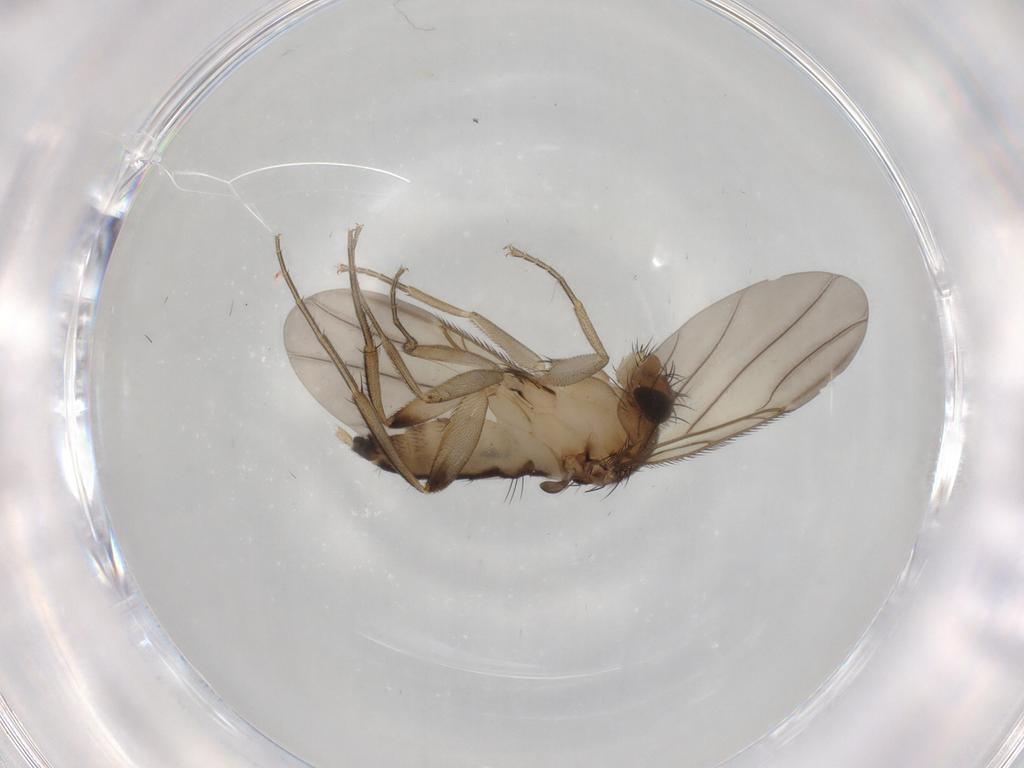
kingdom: Animalia
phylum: Arthropoda
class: Insecta
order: Diptera
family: Phoridae
